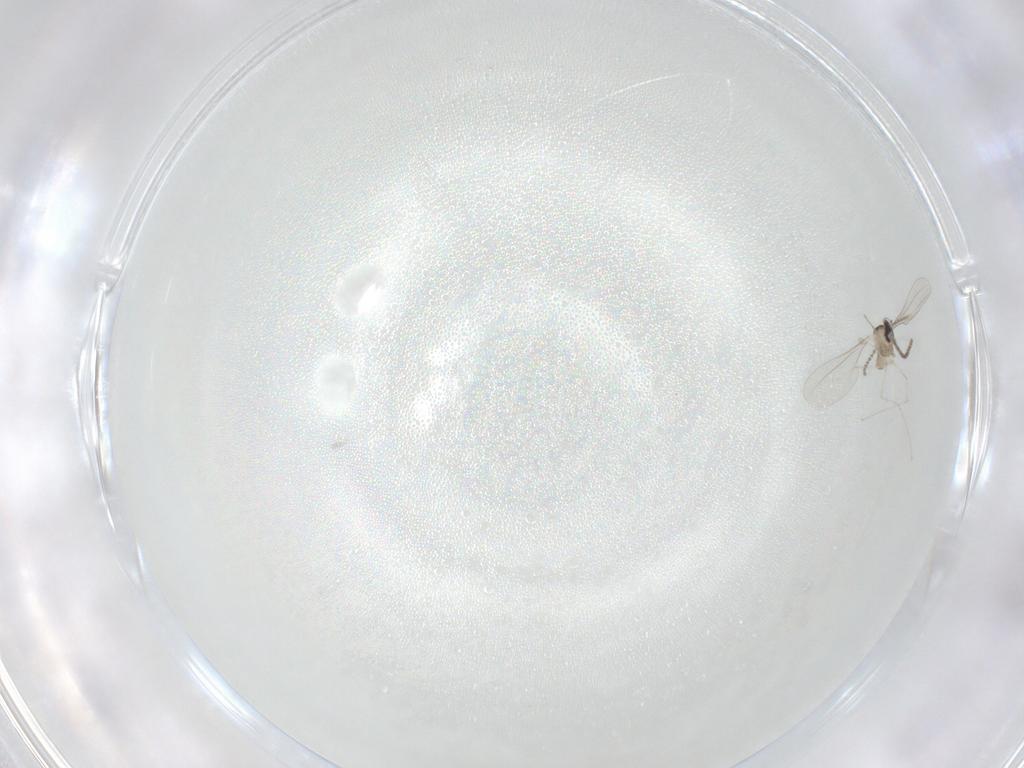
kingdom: Animalia
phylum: Arthropoda
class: Insecta
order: Diptera
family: Cecidomyiidae
